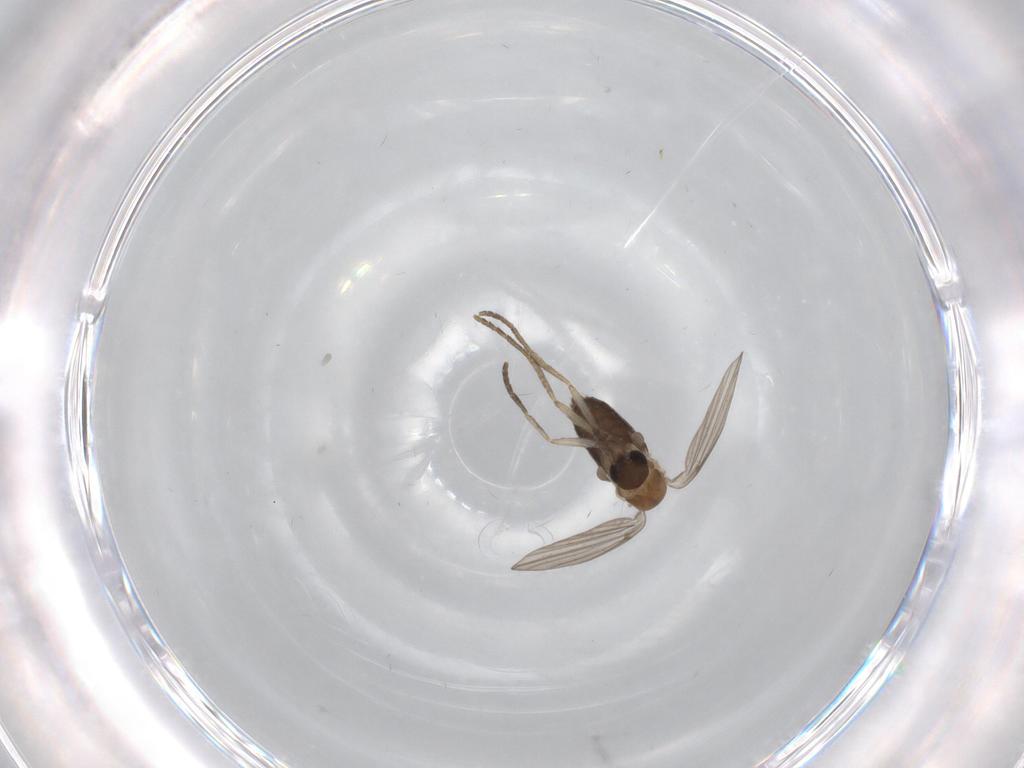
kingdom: Animalia
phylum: Arthropoda
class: Insecta
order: Diptera
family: Psychodidae
